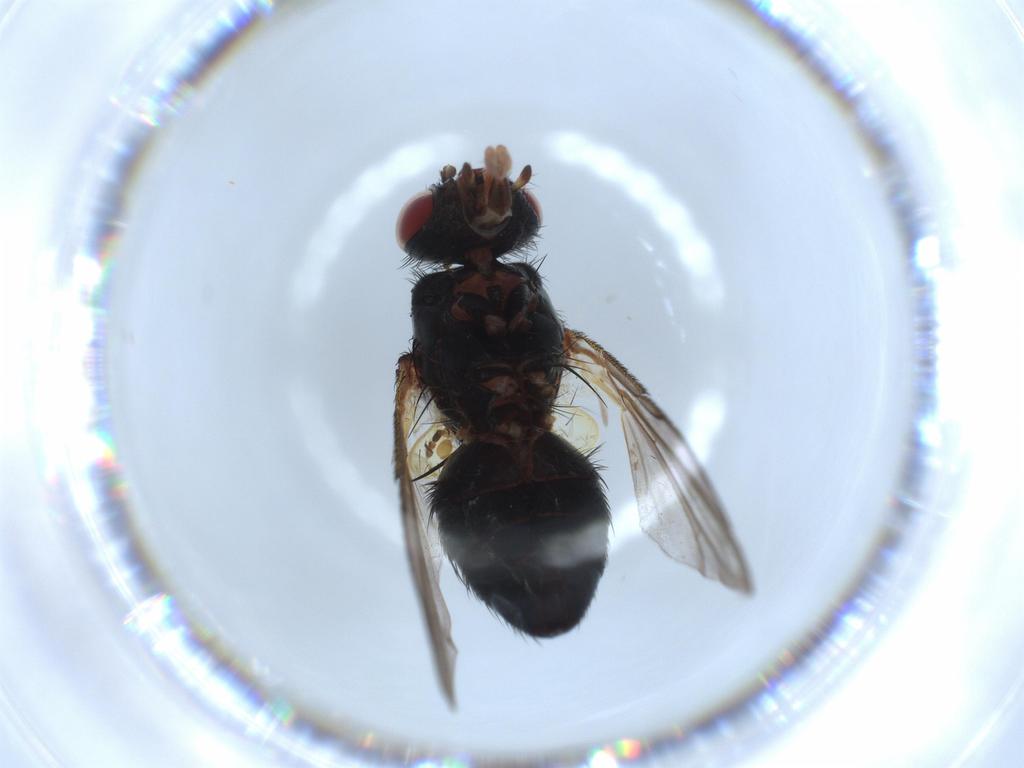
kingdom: Animalia
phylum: Arthropoda
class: Insecta
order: Diptera
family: Tachinidae
